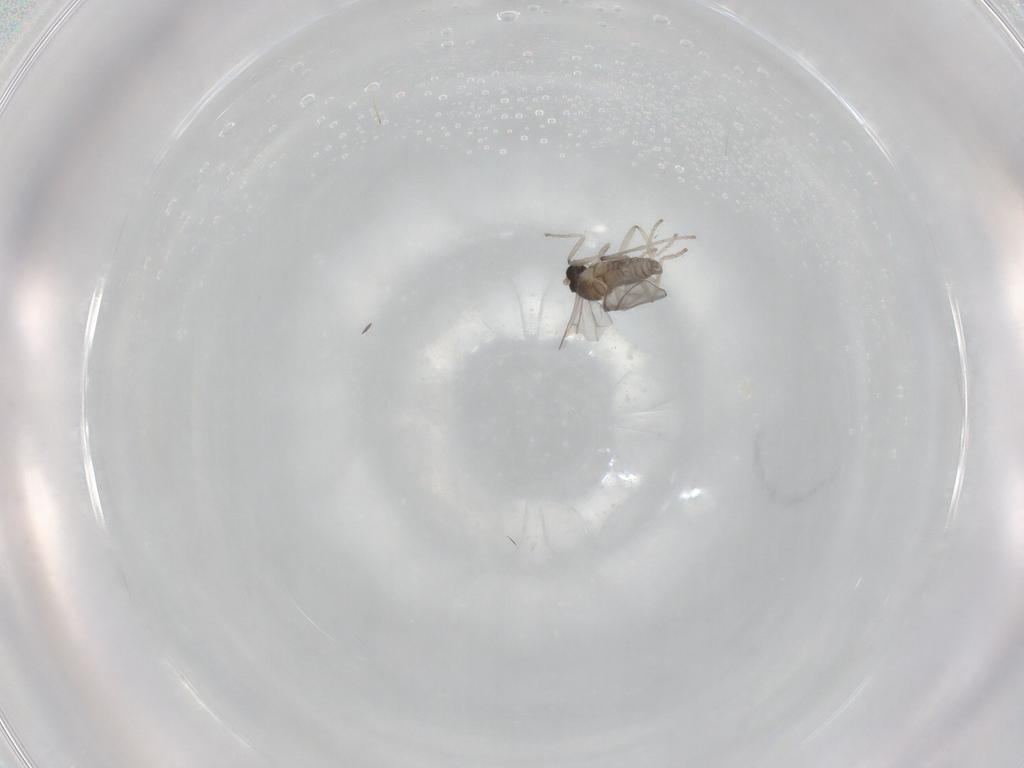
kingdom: Animalia
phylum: Arthropoda
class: Insecta
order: Diptera
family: Cecidomyiidae
